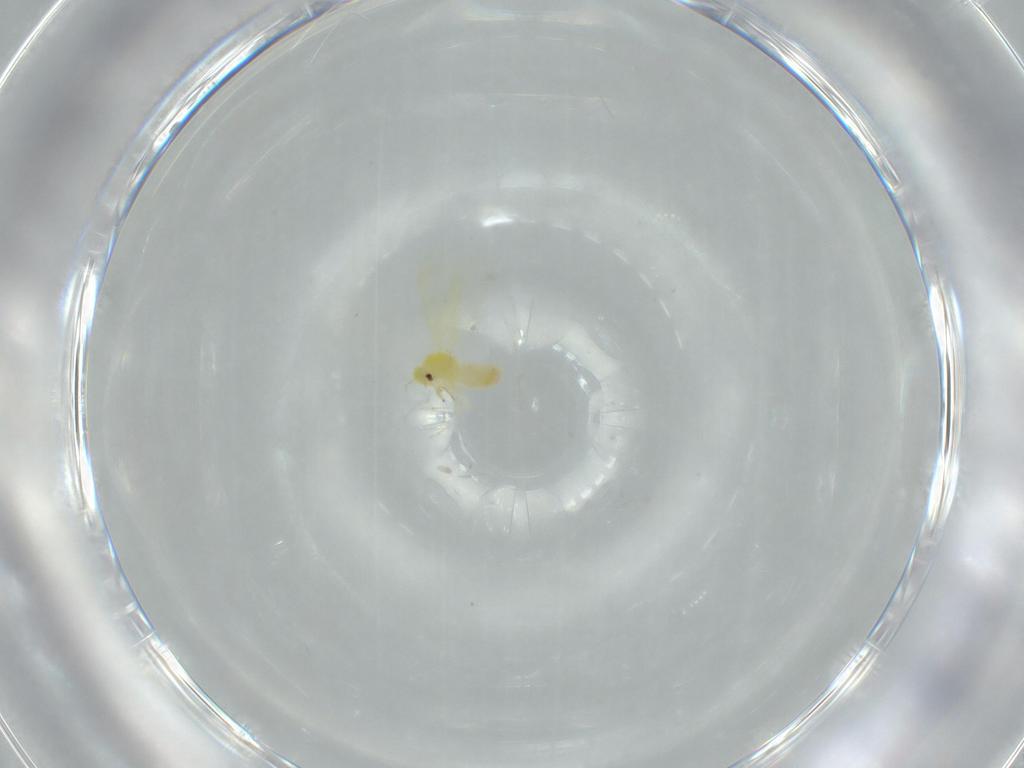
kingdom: Animalia
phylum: Arthropoda
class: Insecta
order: Hemiptera
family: Aleyrodidae
